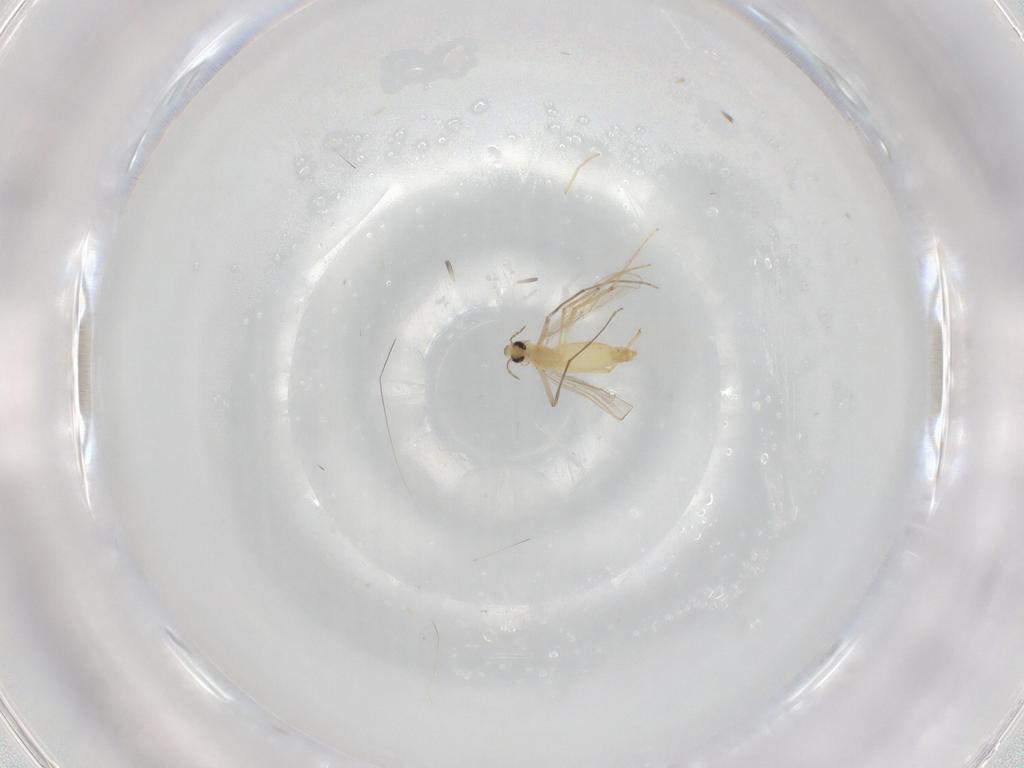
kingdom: Animalia
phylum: Arthropoda
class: Insecta
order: Diptera
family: Chironomidae
